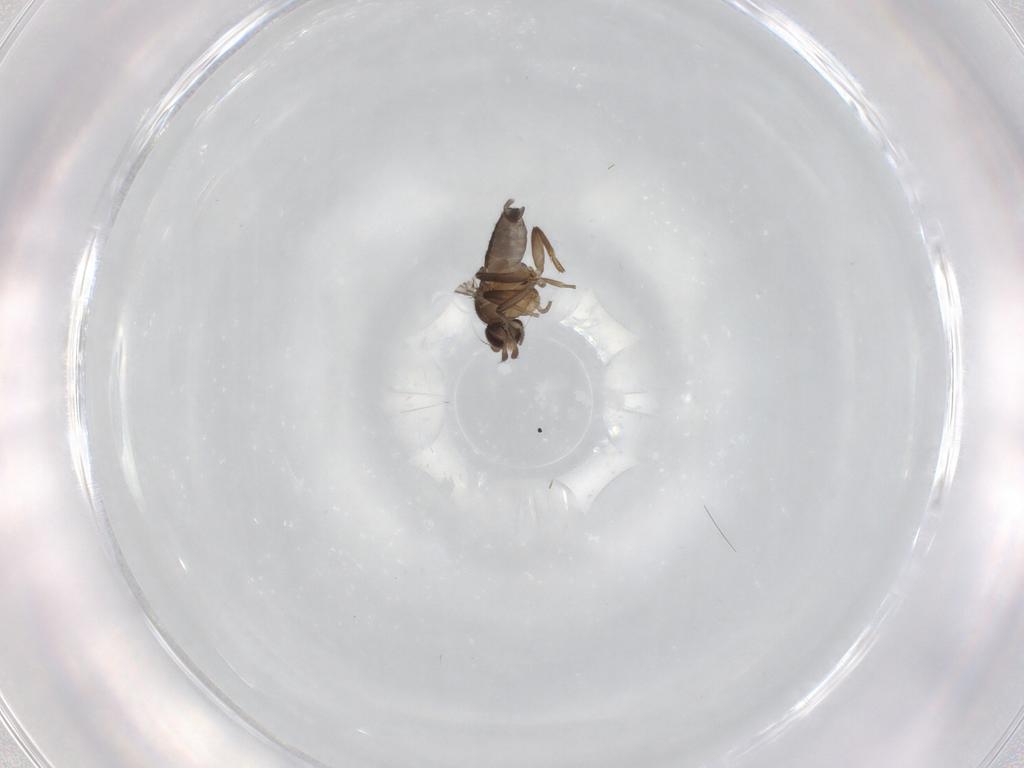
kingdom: Animalia
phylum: Arthropoda
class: Insecta
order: Diptera
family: Phoridae
